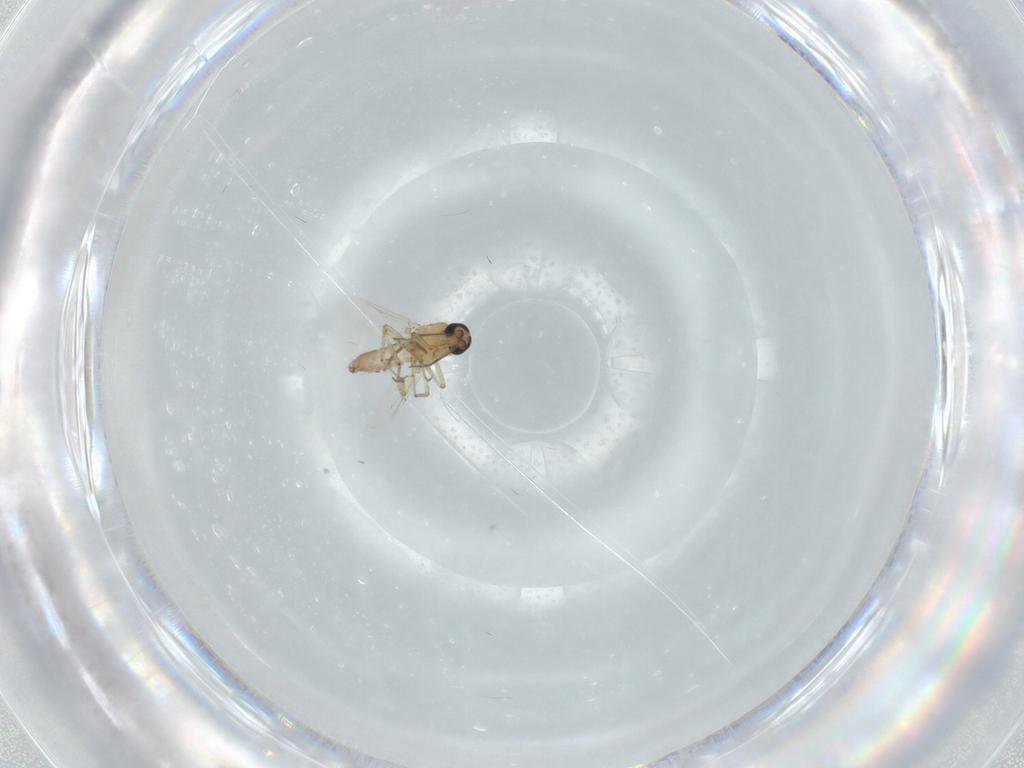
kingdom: Animalia
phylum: Arthropoda
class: Insecta
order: Diptera
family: Ceratopogonidae
